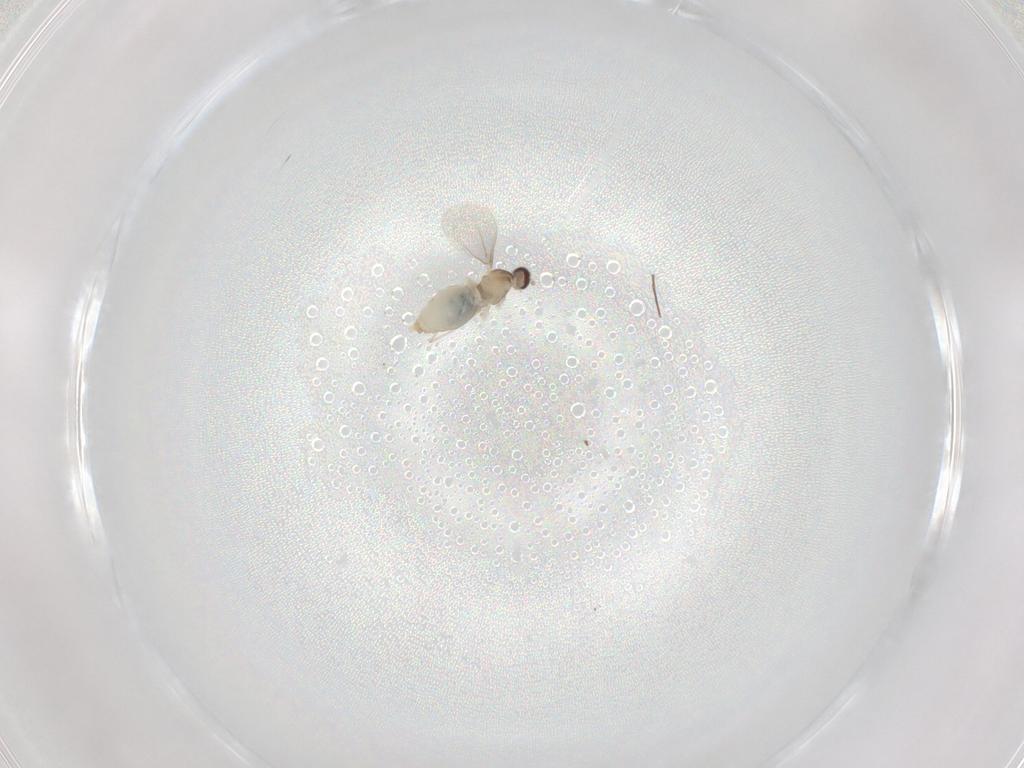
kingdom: Animalia
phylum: Arthropoda
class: Insecta
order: Diptera
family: Cecidomyiidae
